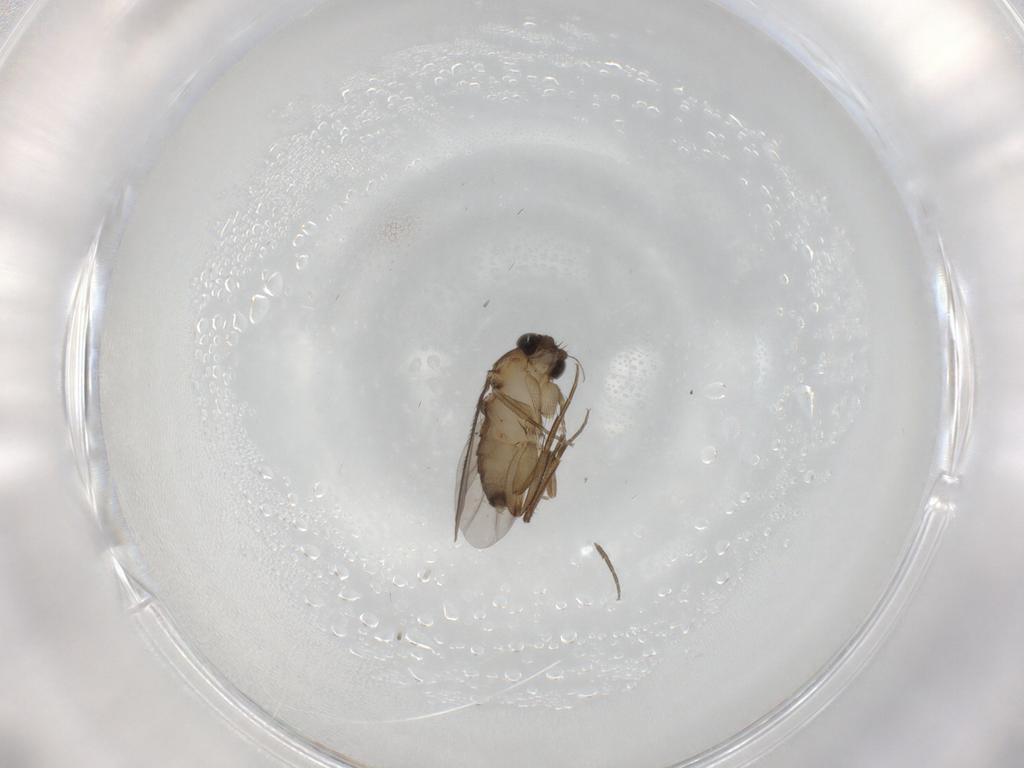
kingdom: Animalia
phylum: Arthropoda
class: Insecta
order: Diptera
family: Phoridae
